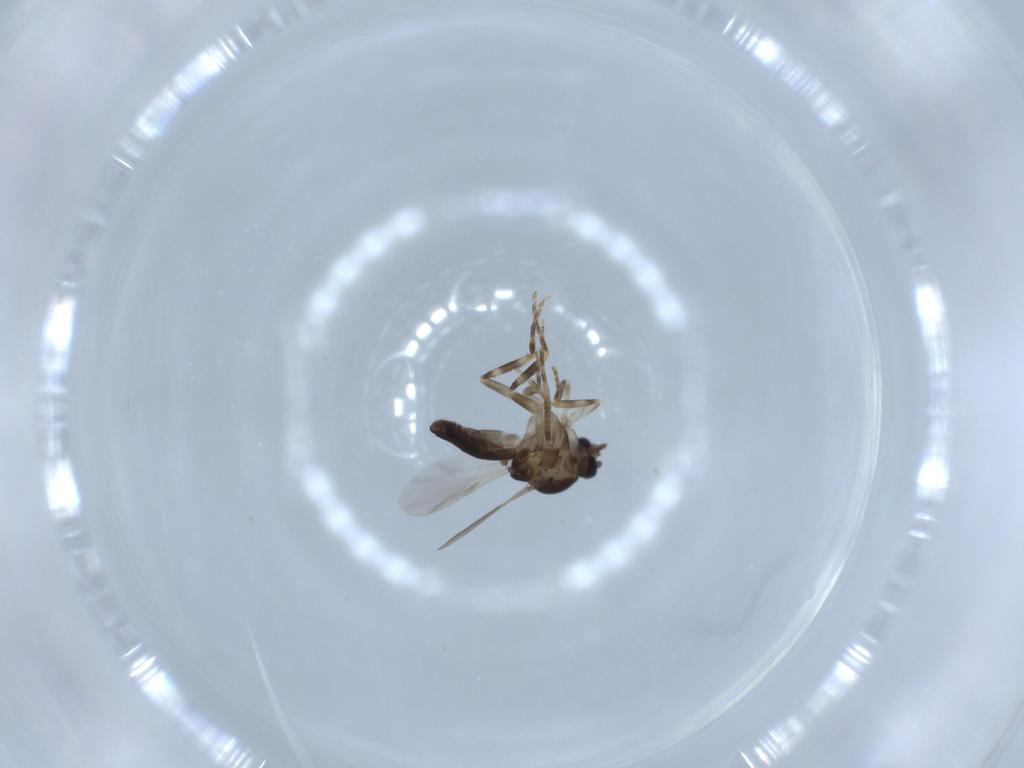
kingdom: Animalia
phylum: Arthropoda
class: Insecta
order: Diptera
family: Ceratopogonidae
